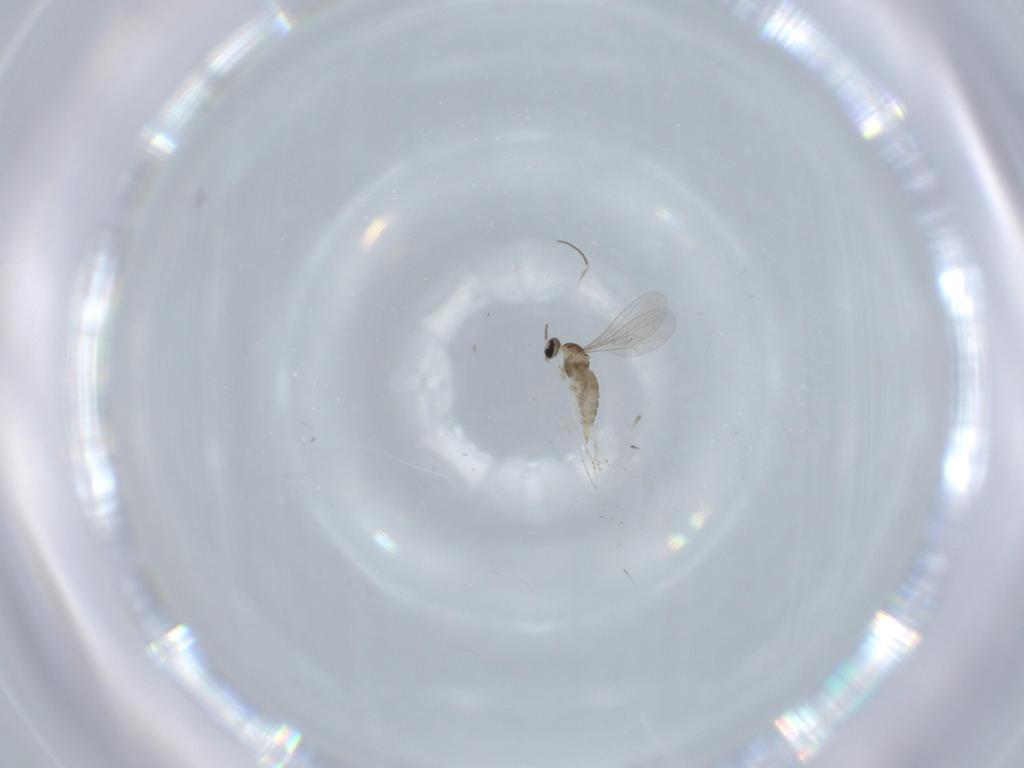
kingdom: Animalia
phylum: Arthropoda
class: Insecta
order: Diptera
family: Cecidomyiidae
